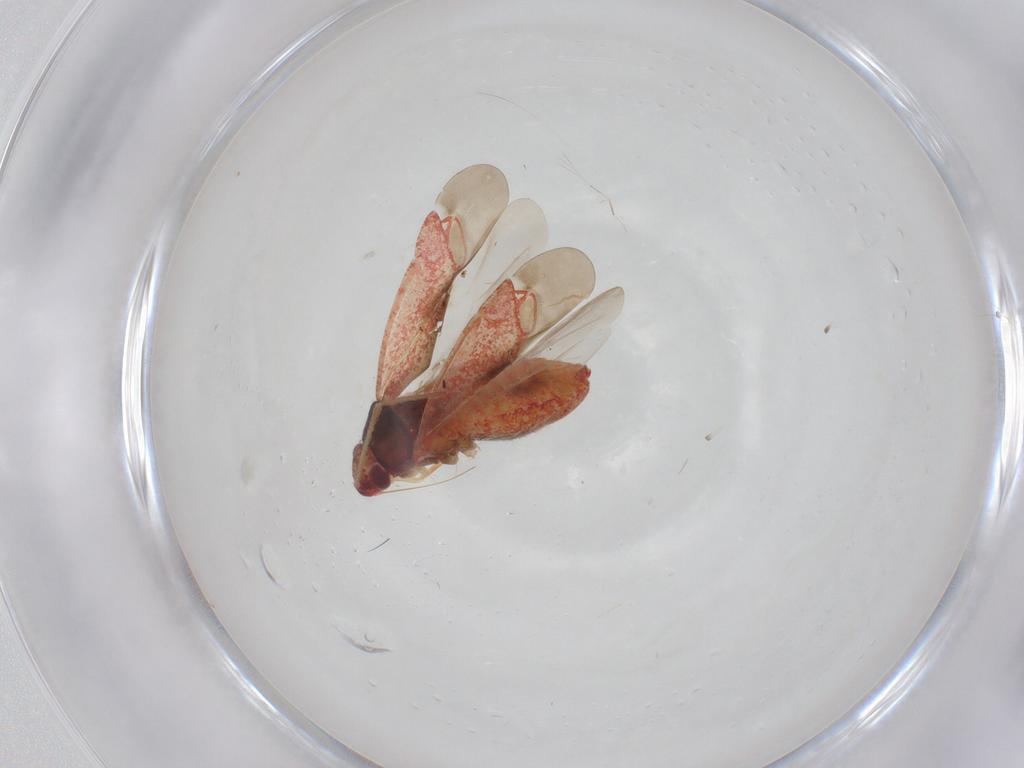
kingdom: Animalia
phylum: Arthropoda
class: Insecta
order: Hemiptera
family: Miridae
